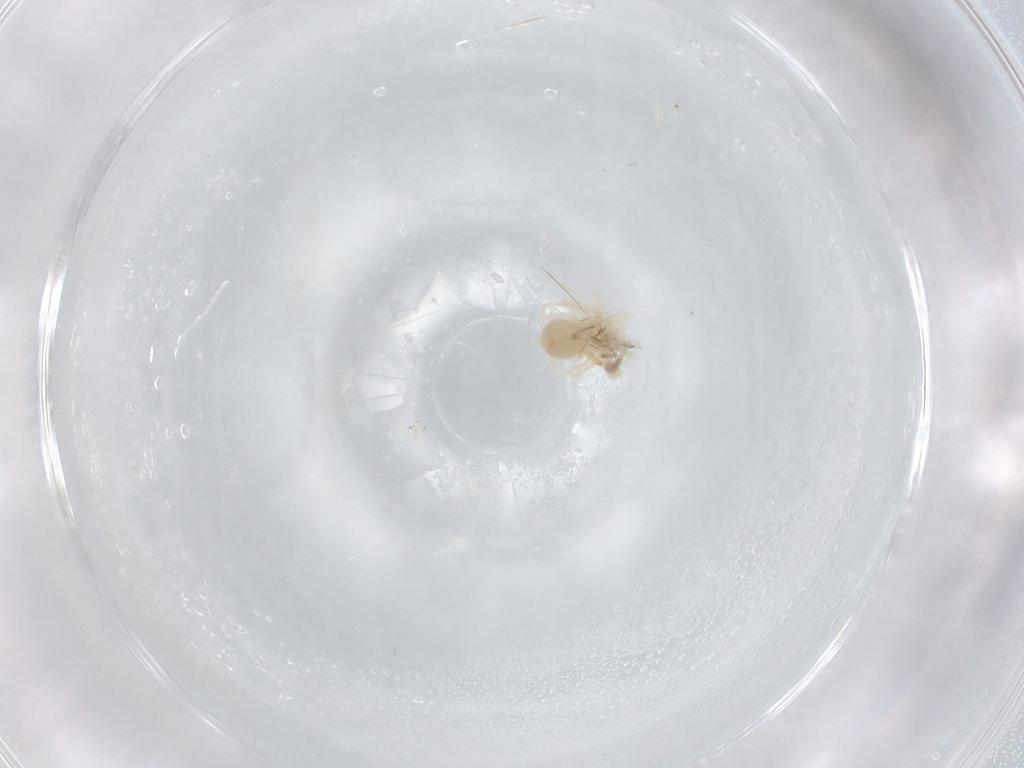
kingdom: Animalia
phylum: Arthropoda
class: Arachnida
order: Trombidiformes
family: Anystidae
